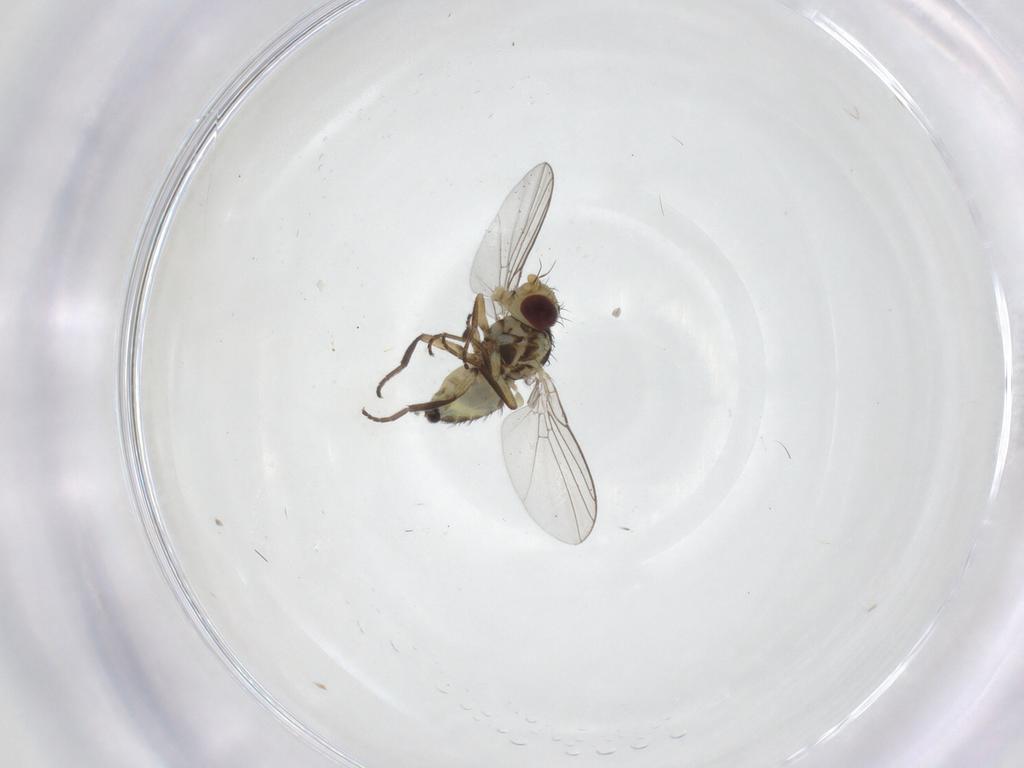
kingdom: Animalia
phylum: Arthropoda
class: Insecta
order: Diptera
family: Agromyzidae
